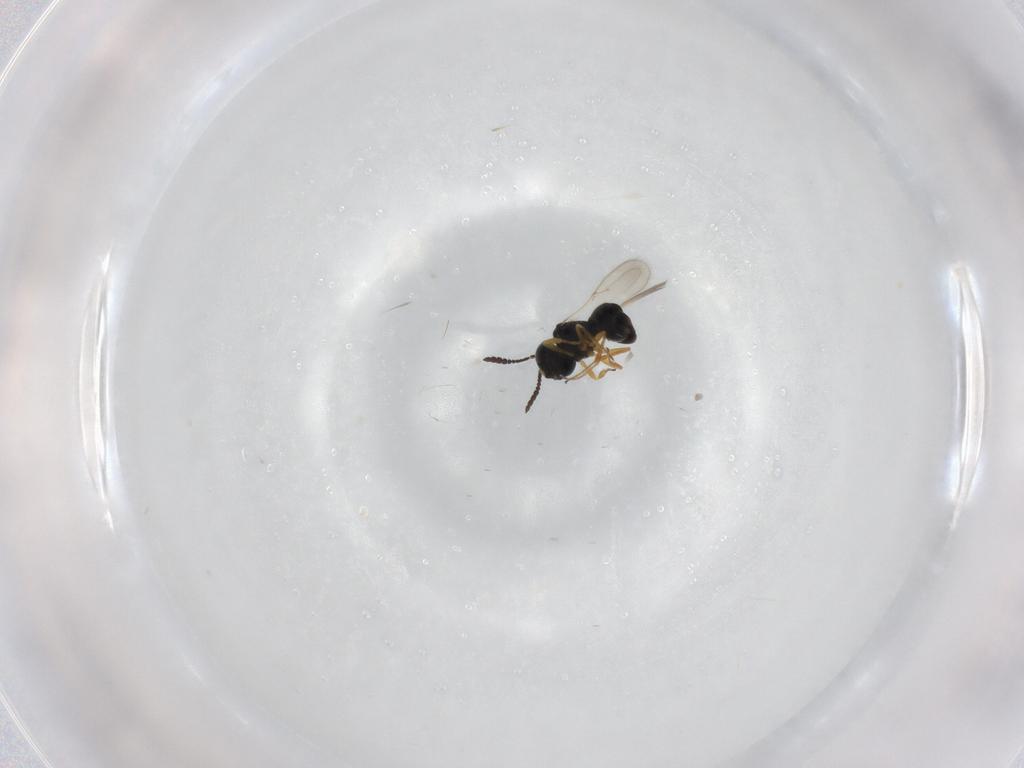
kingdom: Animalia
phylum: Arthropoda
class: Insecta
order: Hymenoptera
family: Scelionidae
